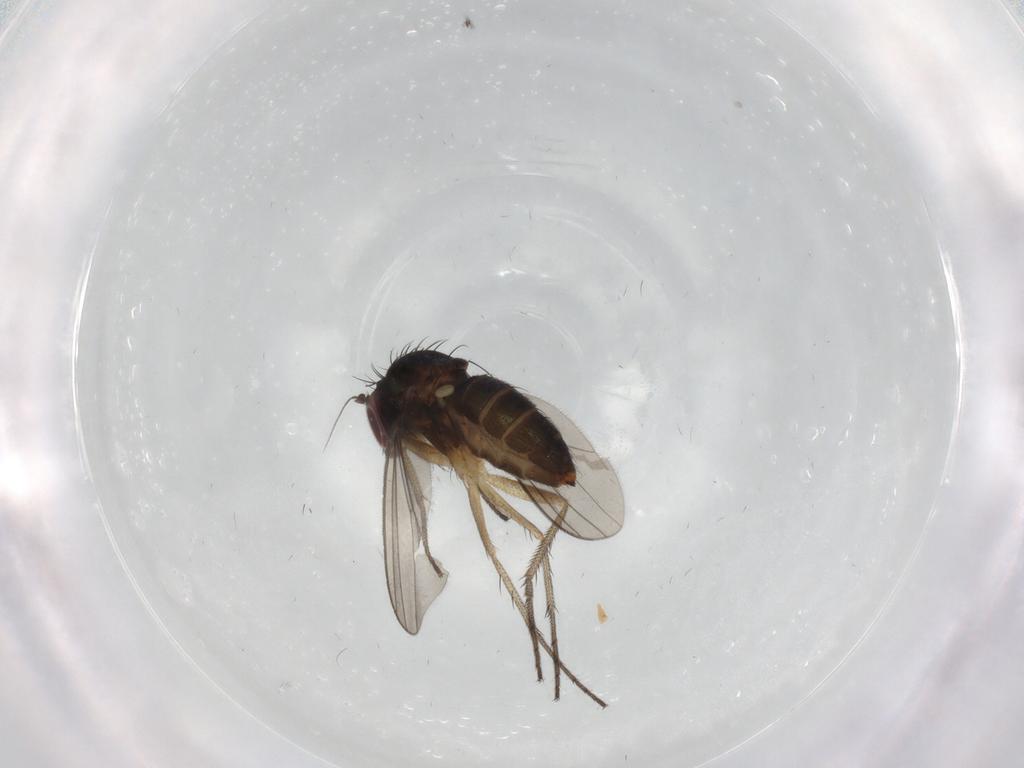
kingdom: Animalia
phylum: Arthropoda
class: Insecta
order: Diptera
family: Dolichopodidae
